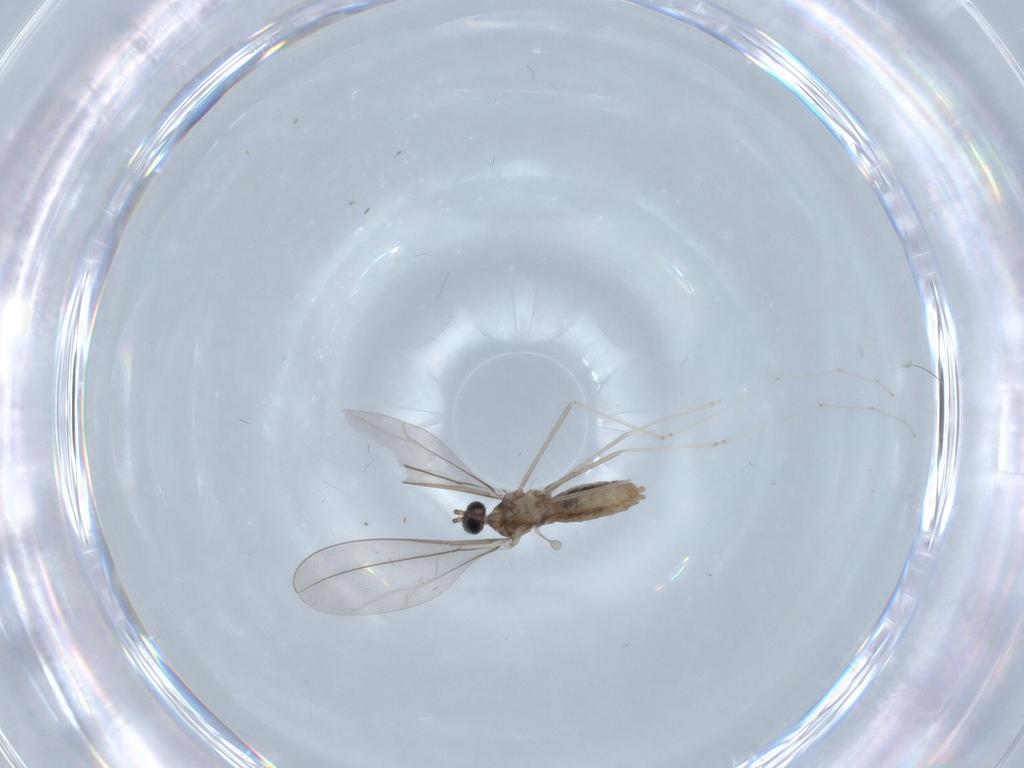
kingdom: Animalia
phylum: Arthropoda
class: Insecta
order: Diptera
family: Cecidomyiidae
